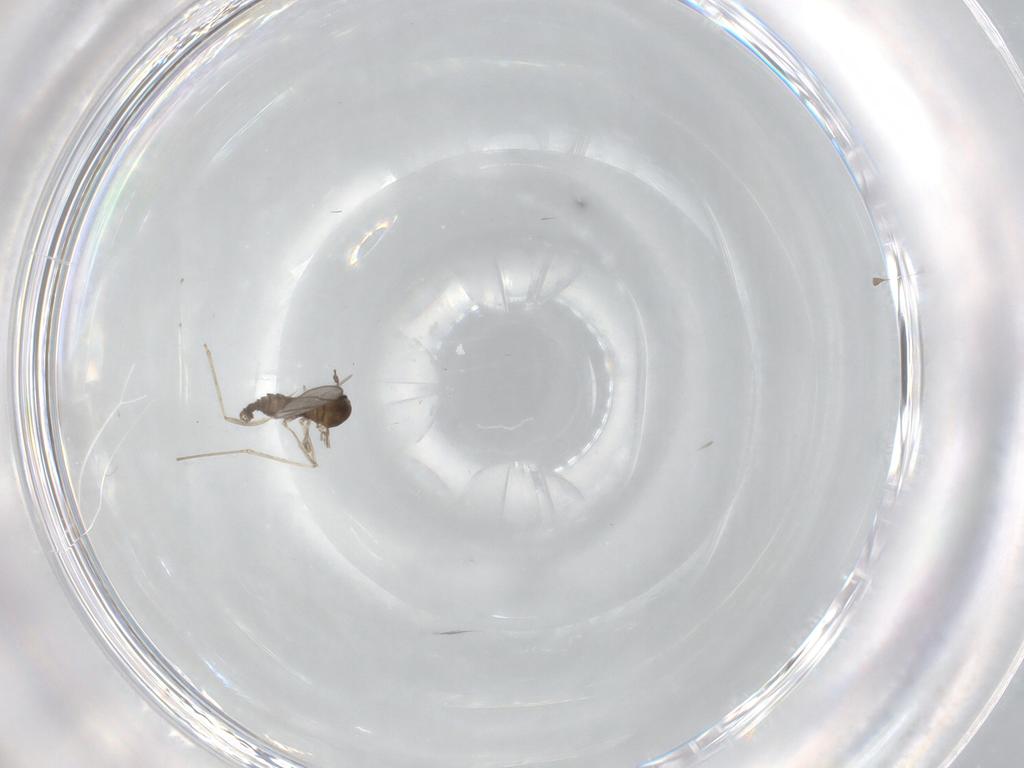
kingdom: Animalia
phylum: Arthropoda
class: Insecta
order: Diptera
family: Cecidomyiidae
